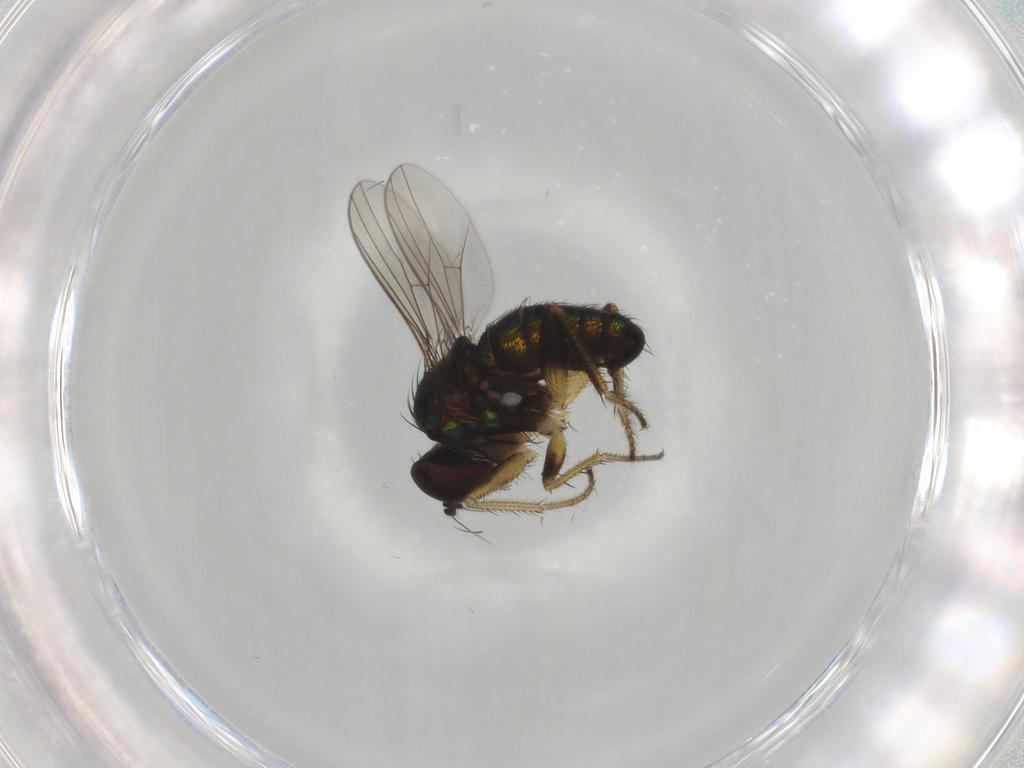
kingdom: Animalia
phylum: Arthropoda
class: Insecta
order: Diptera
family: Dolichopodidae
